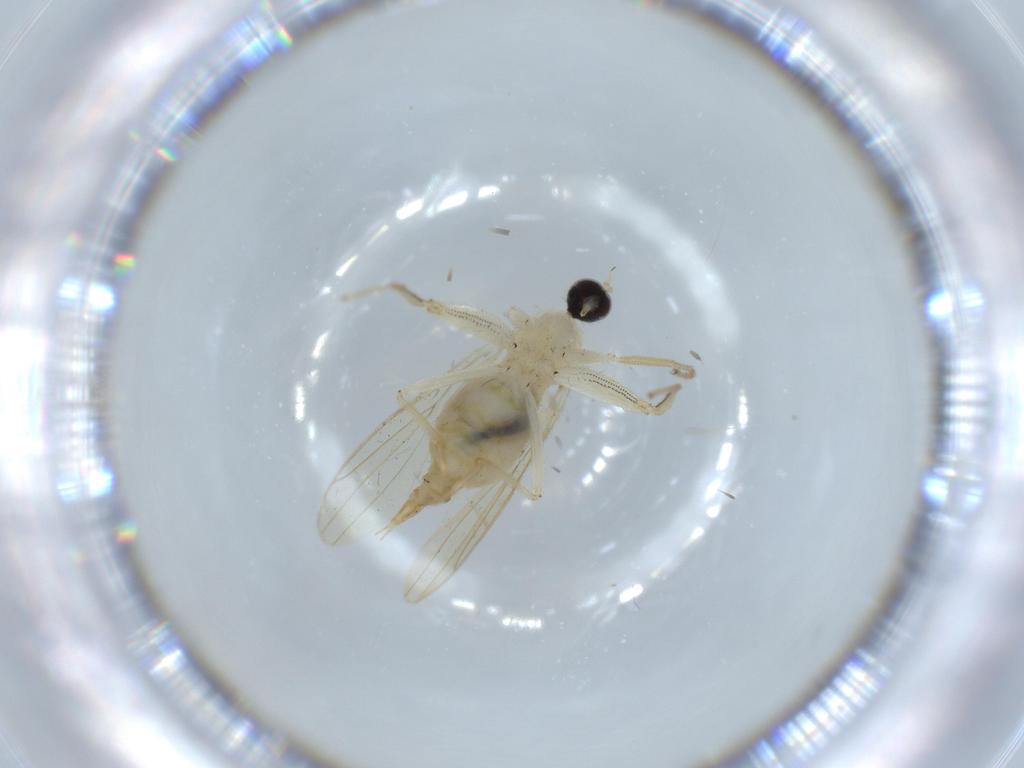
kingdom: Animalia
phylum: Arthropoda
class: Insecta
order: Diptera
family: Hybotidae
